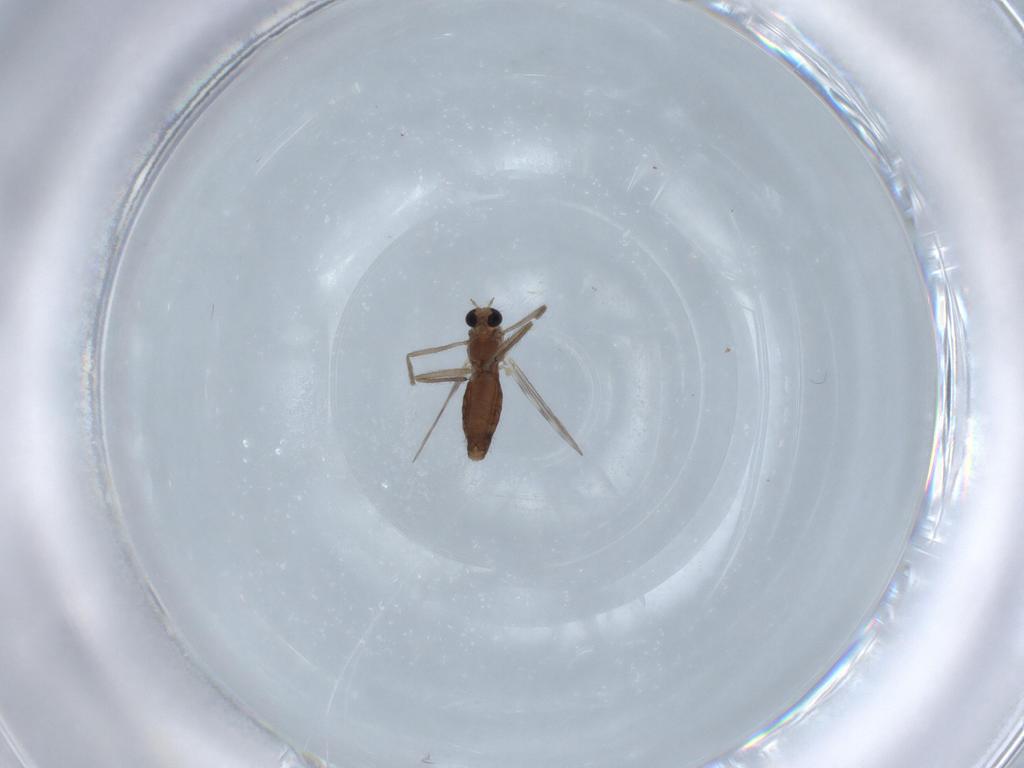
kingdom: Animalia
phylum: Arthropoda
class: Insecta
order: Diptera
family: Chironomidae
